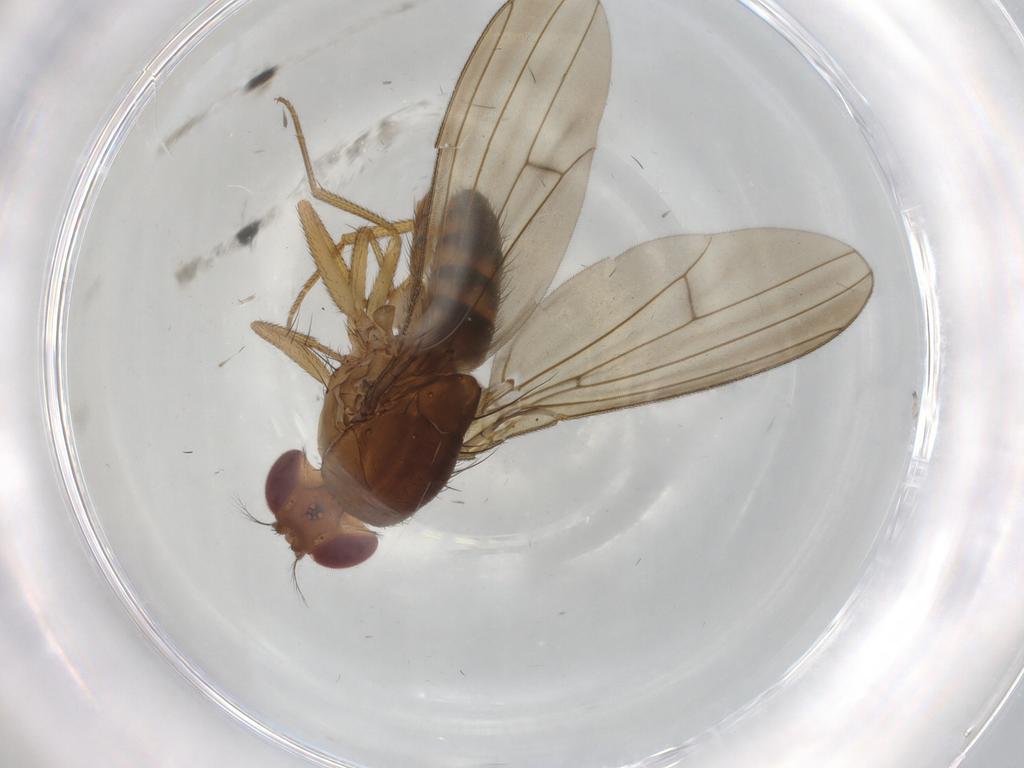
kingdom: Animalia
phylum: Arthropoda
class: Insecta
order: Diptera
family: Drosophilidae
